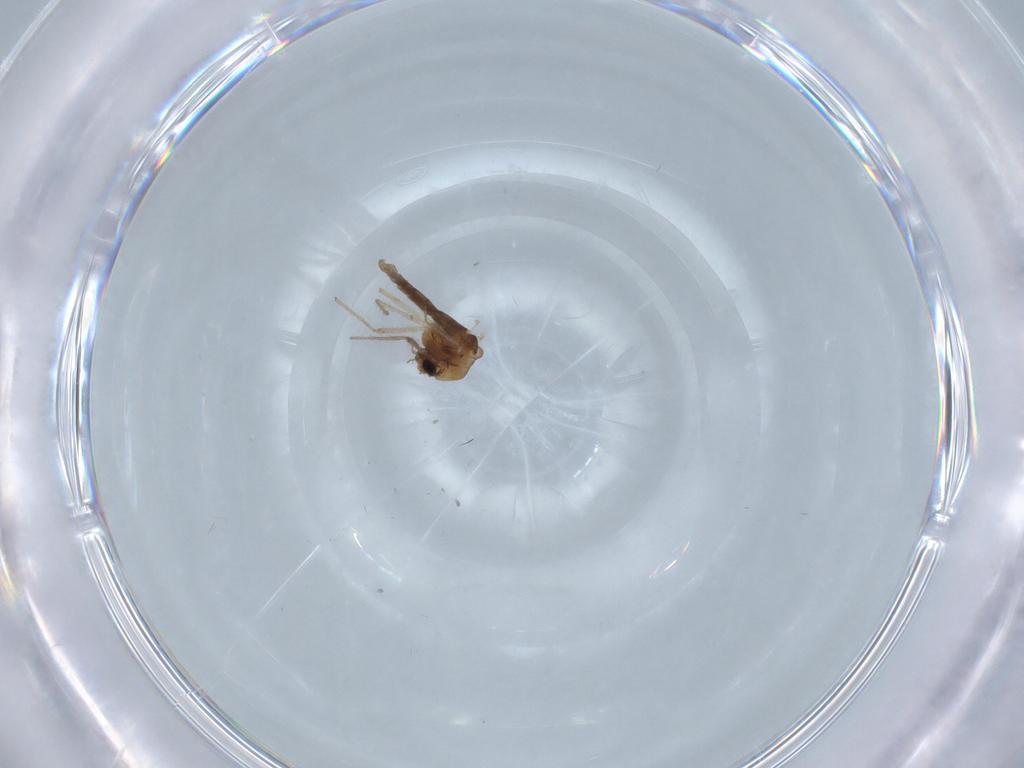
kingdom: Animalia
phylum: Arthropoda
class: Insecta
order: Diptera
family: Chironomidae
